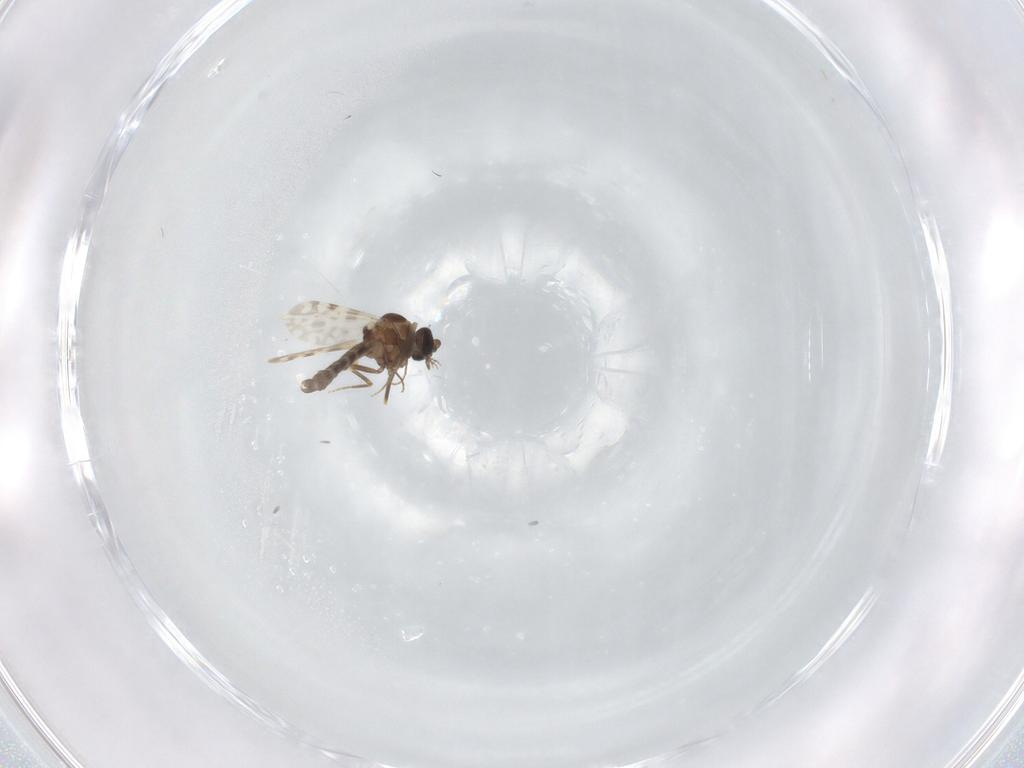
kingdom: Animalia
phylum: Arthropoda
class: Insecta
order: Diptera
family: Ceratopogonidae
